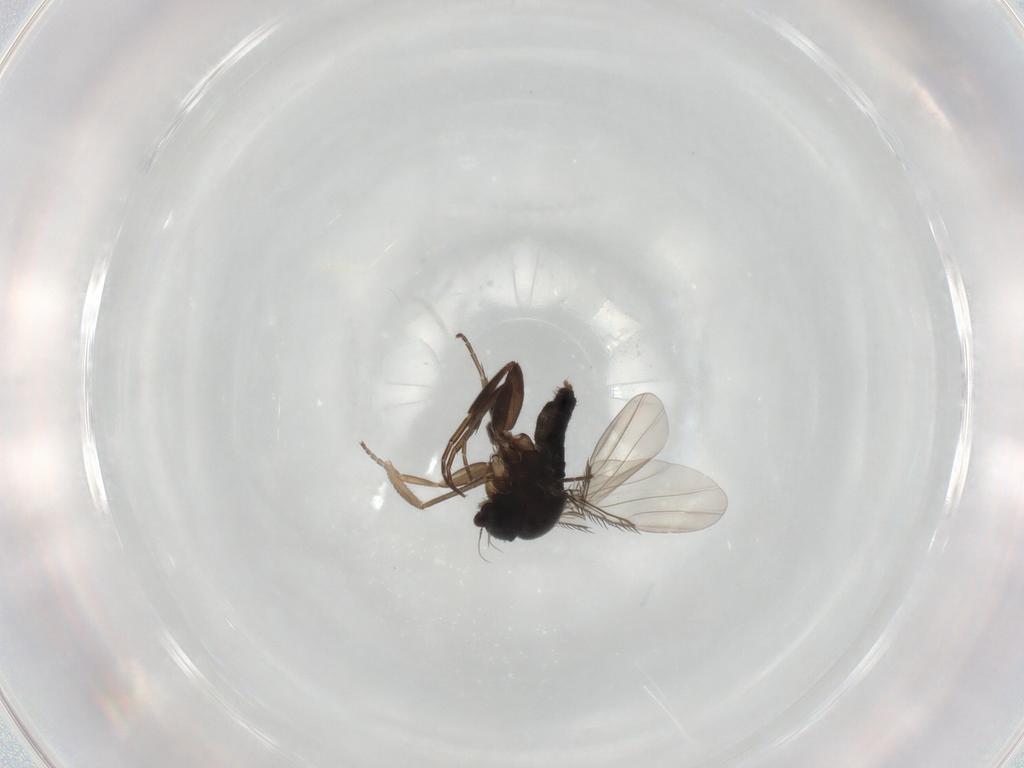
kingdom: Animalia
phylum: Arthropoda
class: Insecta
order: Diptera
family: Phoridae
